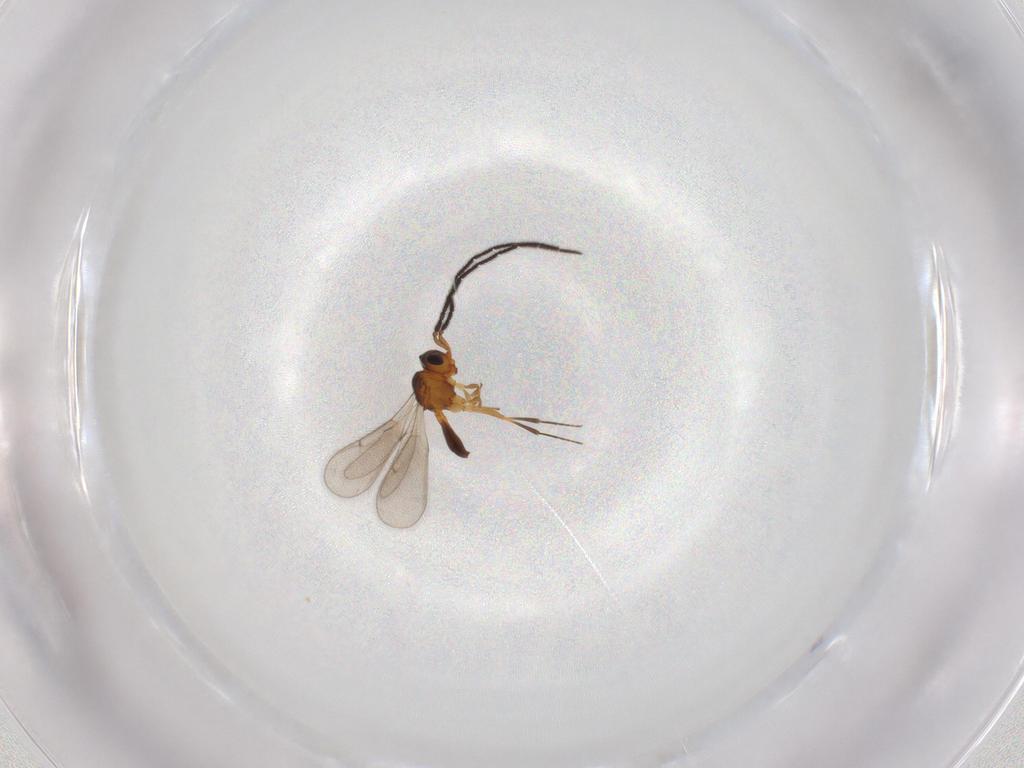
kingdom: Animalia
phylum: Arthropoda
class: Insecta
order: Hymenoptera
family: Scelionidae
